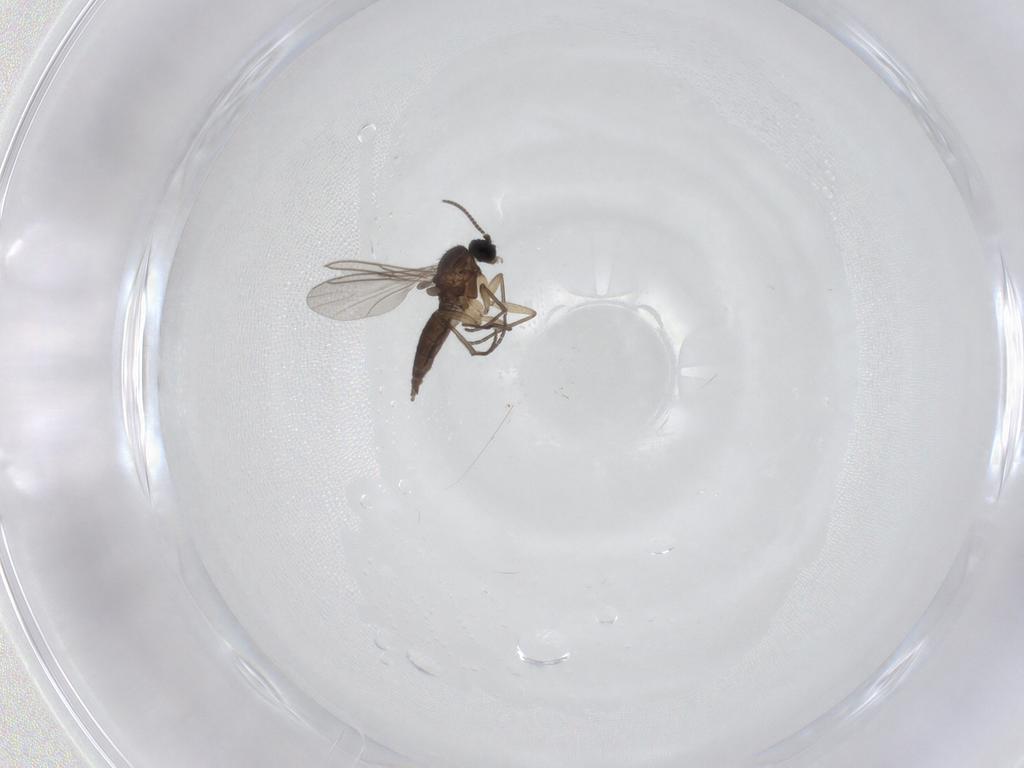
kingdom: Animalia
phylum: Arthropoda
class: Insecta
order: Diptera
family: Sciaridae
